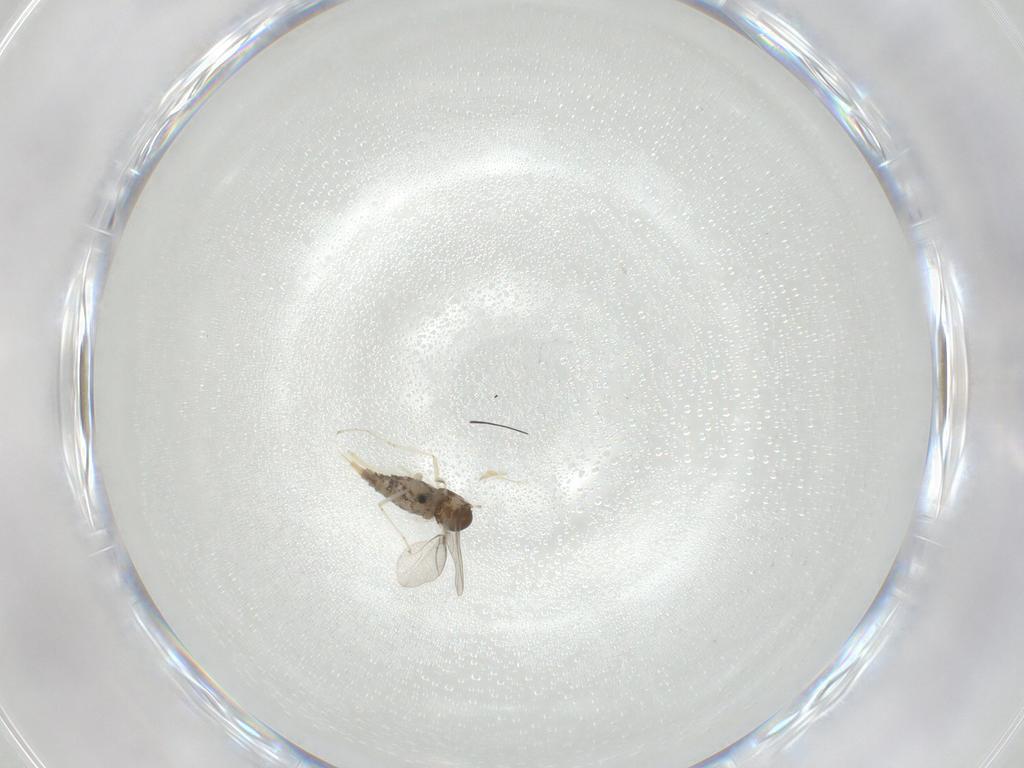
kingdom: Animalia
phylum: Arthropoda
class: Insecta
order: Diptera
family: Cecidomyiidae
